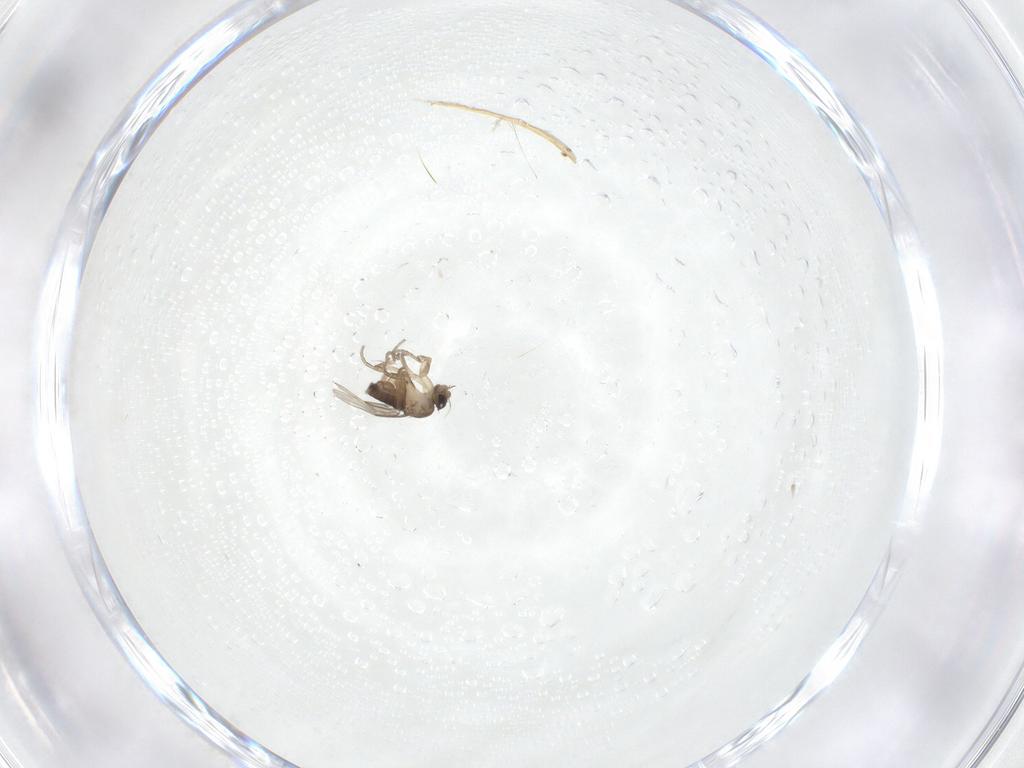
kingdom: Animalia
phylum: Arthropoda
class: Insecta
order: Diptera
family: Phoridae
